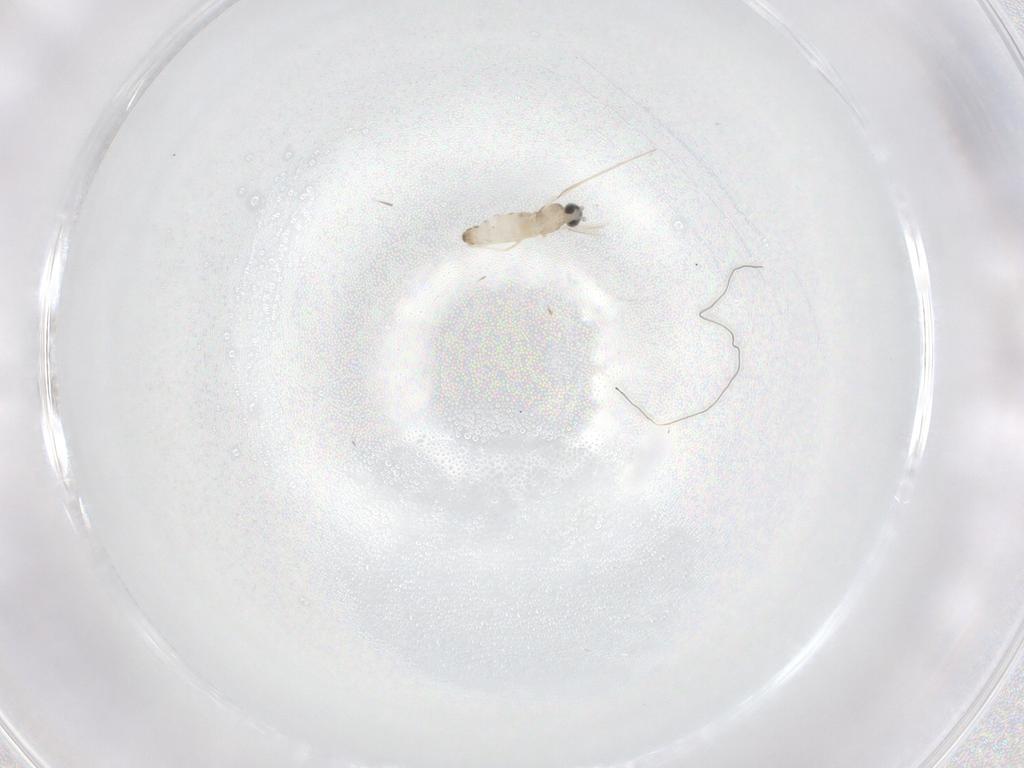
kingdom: Animalia
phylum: Arthropoda
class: Insecta
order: Diptera
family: Cecidomyiidae
